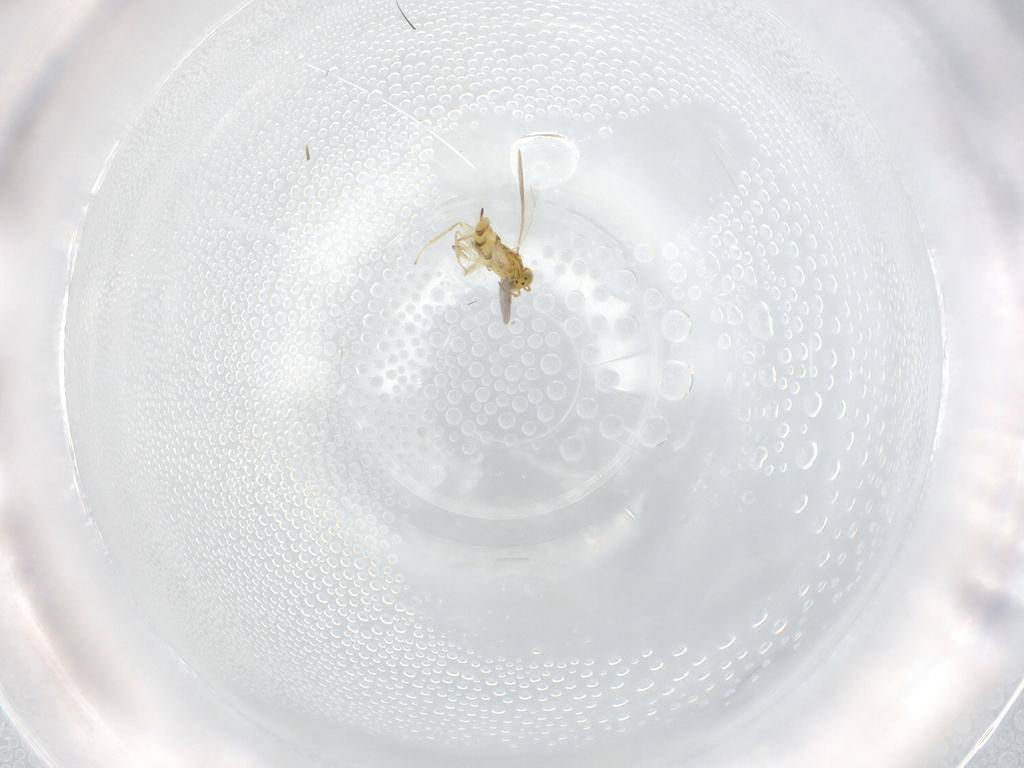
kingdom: Animalia
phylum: Arthropoda
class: Insecta
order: Hymenoptera
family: Aphelinidae
